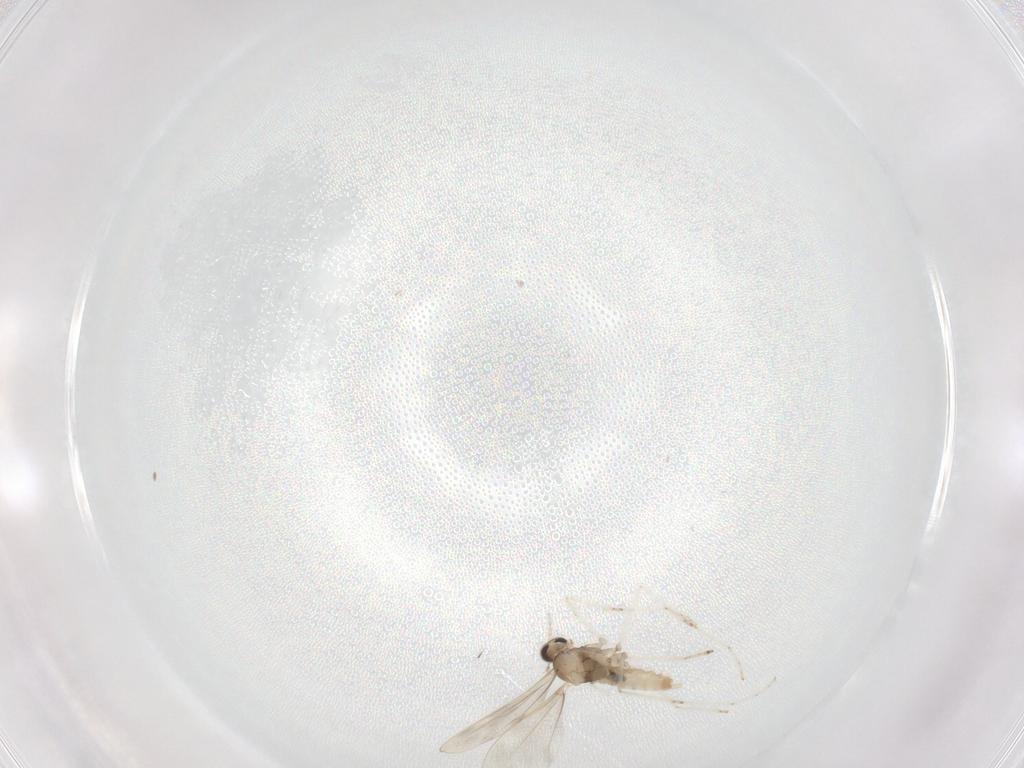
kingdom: Animalia
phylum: Arthropoda
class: Insecta
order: Diptera
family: Cecidomyiidae
